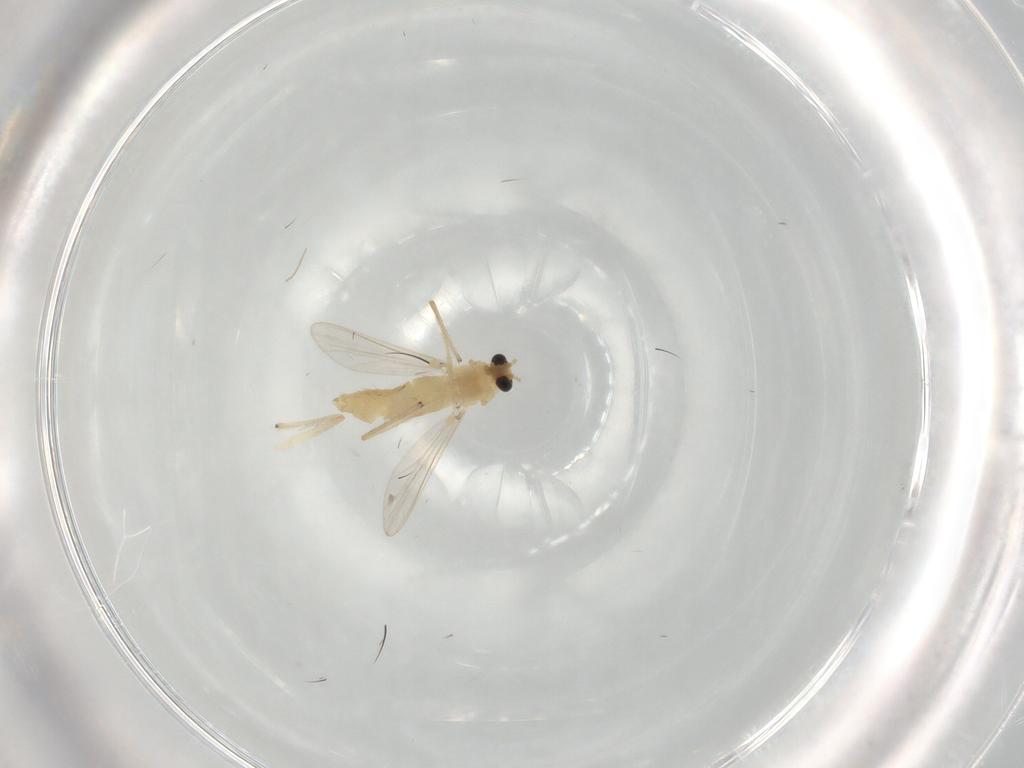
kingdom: Animalia
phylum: Arthropoda
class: Insecta
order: Diptera
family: Chironomidae
